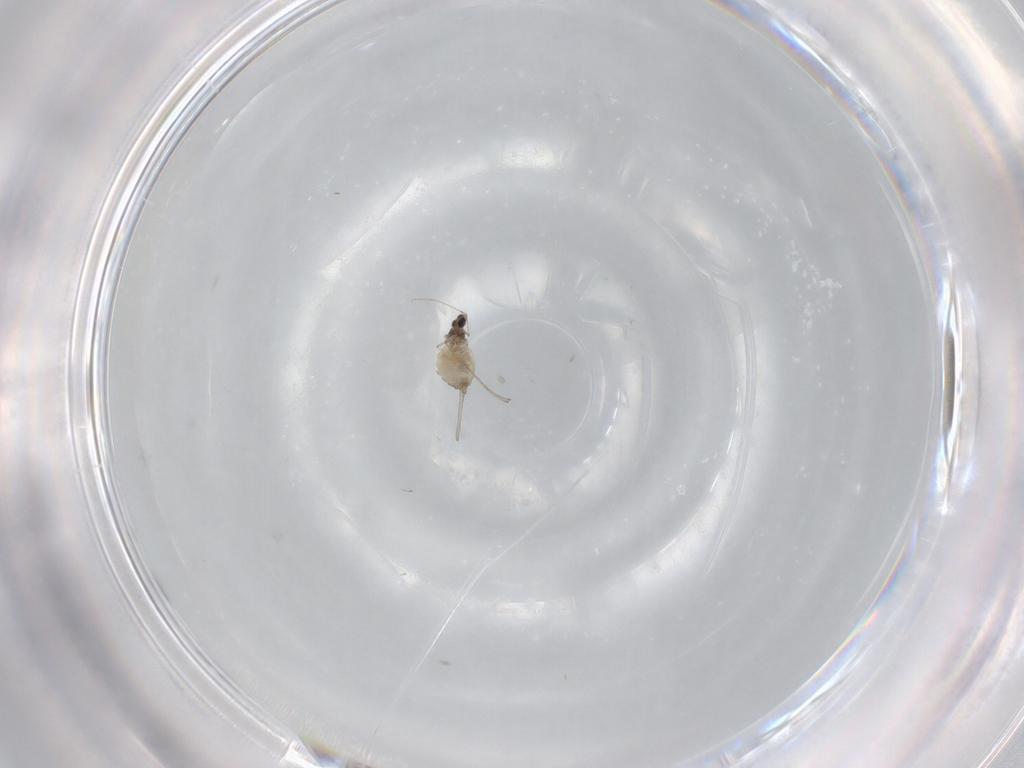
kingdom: Animalia
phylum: Arthropoda
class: Insecta
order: Diptera
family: Cecidomyiidae
